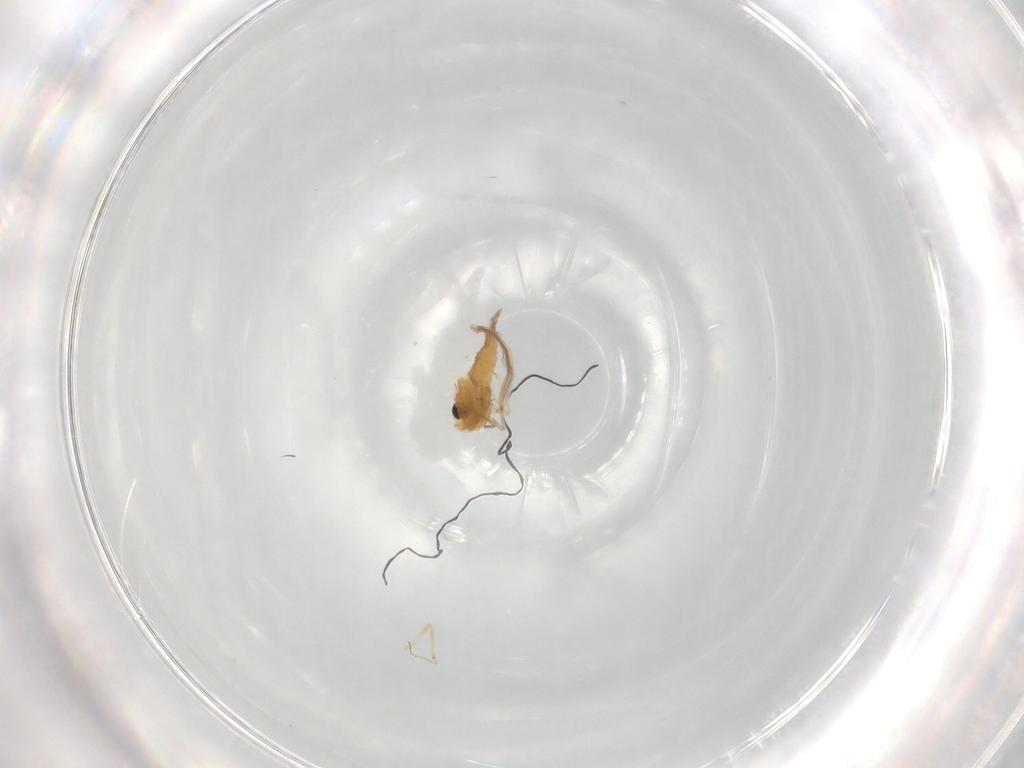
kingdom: Animalia
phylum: Arthropoda
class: Insecta
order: Diptera
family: Chironomidae
